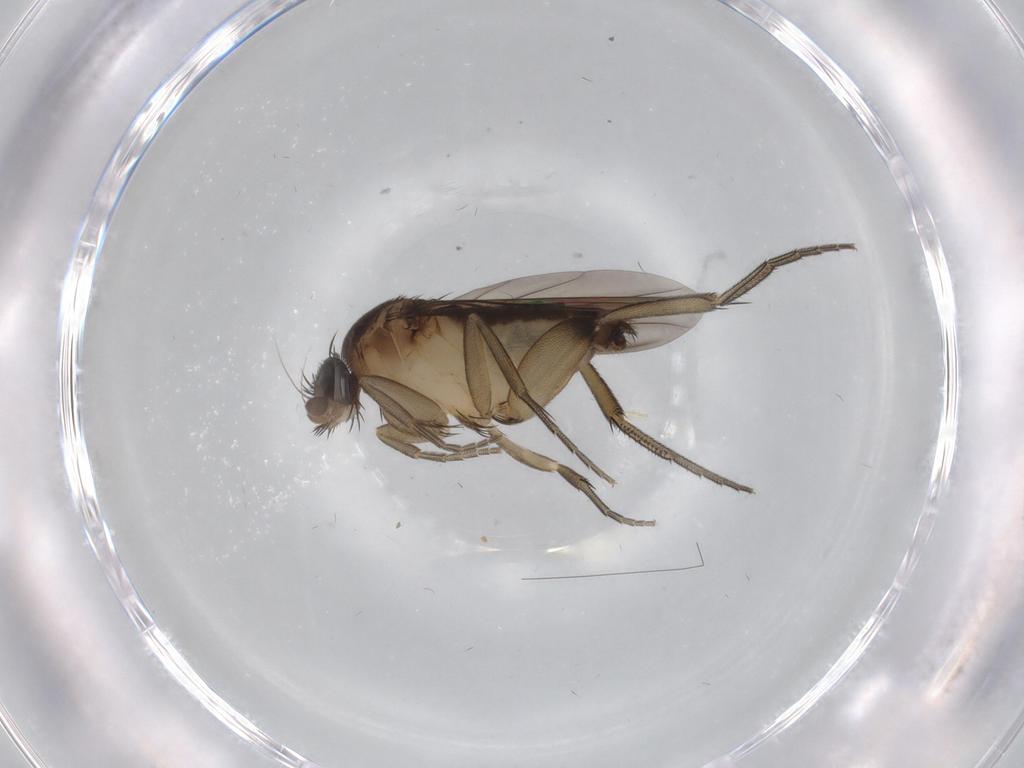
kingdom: Animalia
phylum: Arthropoda
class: Insecta
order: Diptera
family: Phoridae
